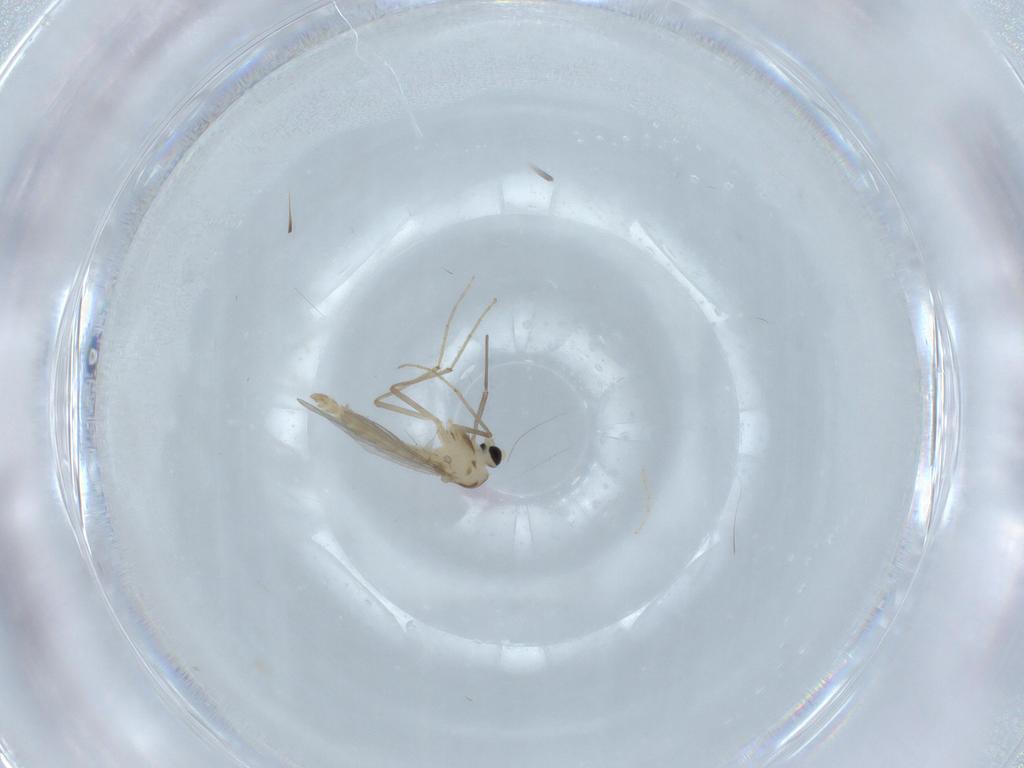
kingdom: Animalia
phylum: Arthropoda
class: Insecta
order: Diptera
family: Chironomidae
